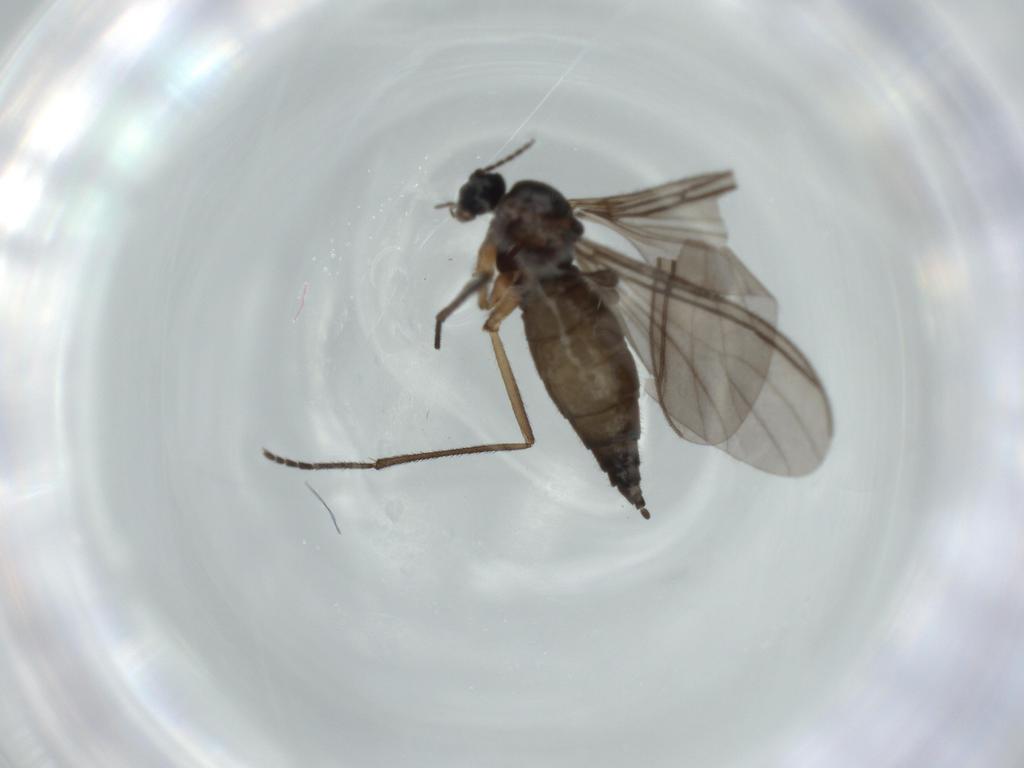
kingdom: Animalia
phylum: Arthropoda
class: Insecta
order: Diptera
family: Sciaridae
